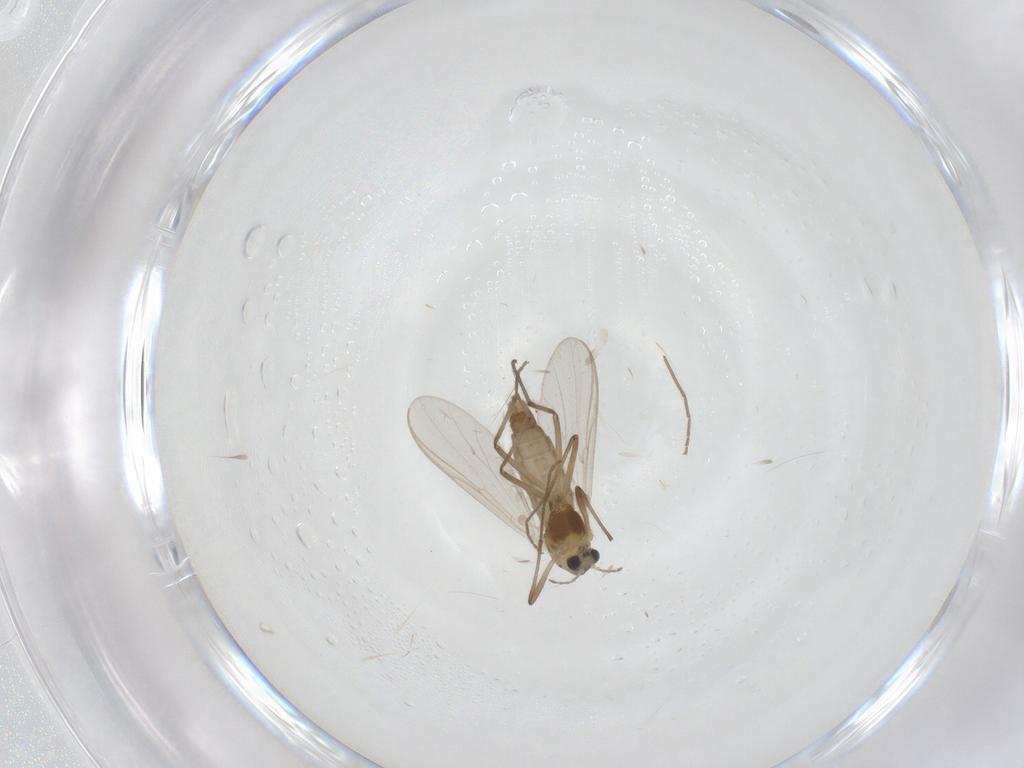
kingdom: Animalia
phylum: Arthropoda
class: Insecta
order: Diptera
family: Chironomidae
